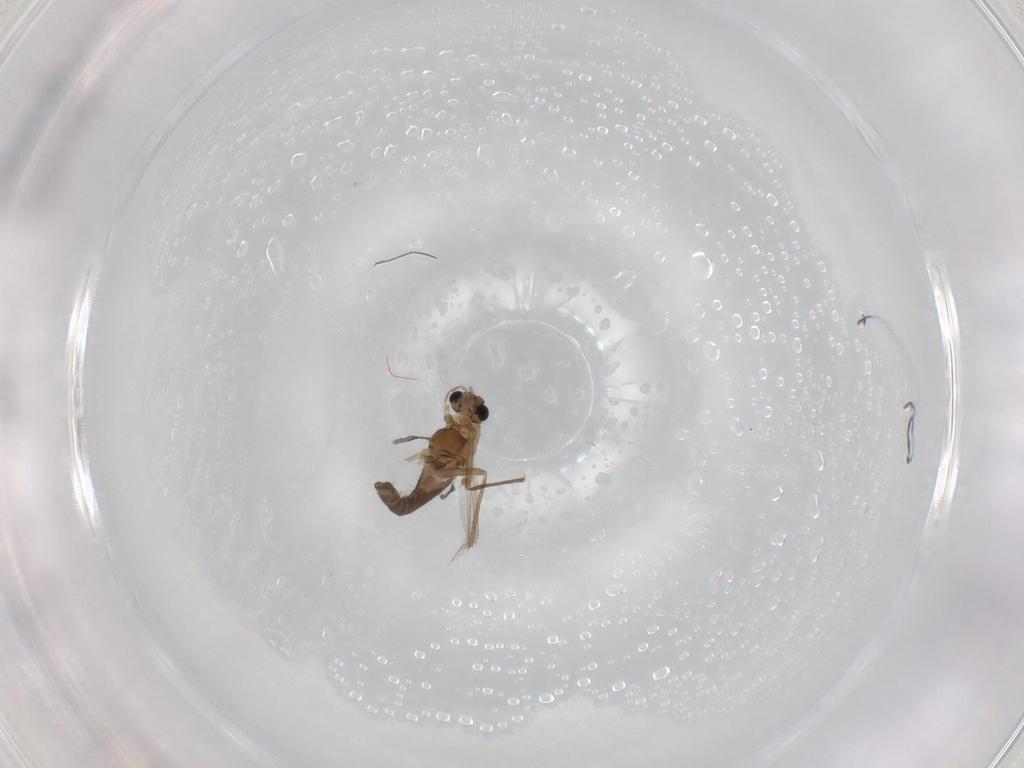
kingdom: Animalia
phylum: Arthropoda
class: Insecta
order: Diptera
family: Chironomidae
